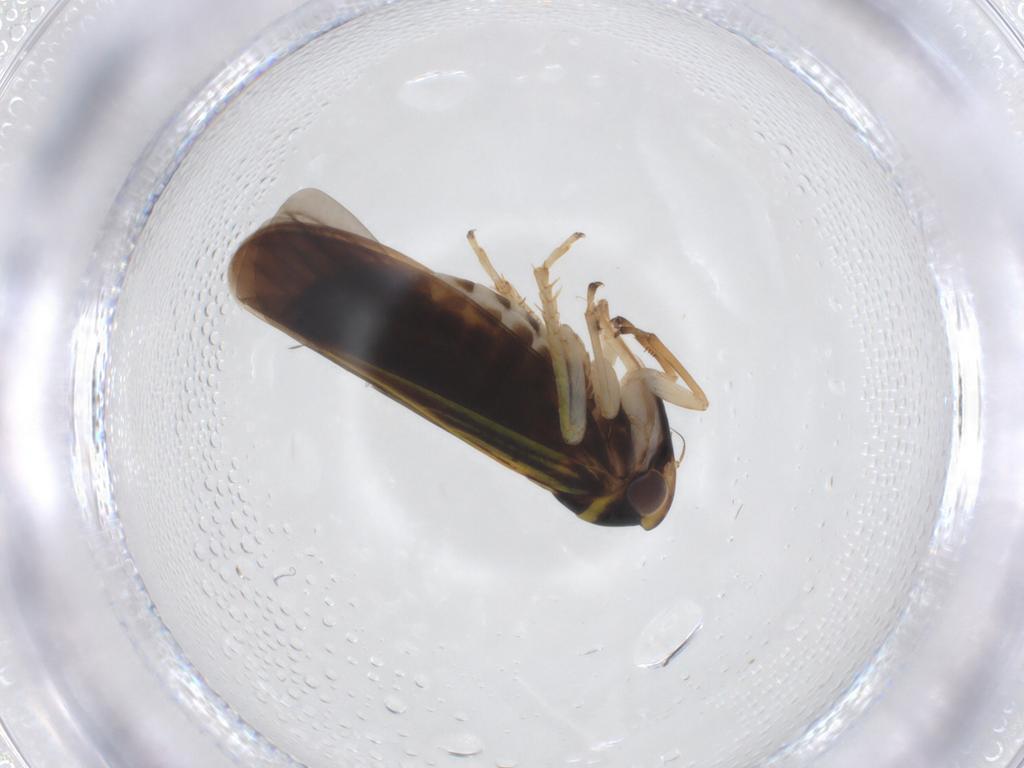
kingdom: Animalia
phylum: Arthropoda
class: Insecta
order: Hemiptera
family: Cicadellidae
